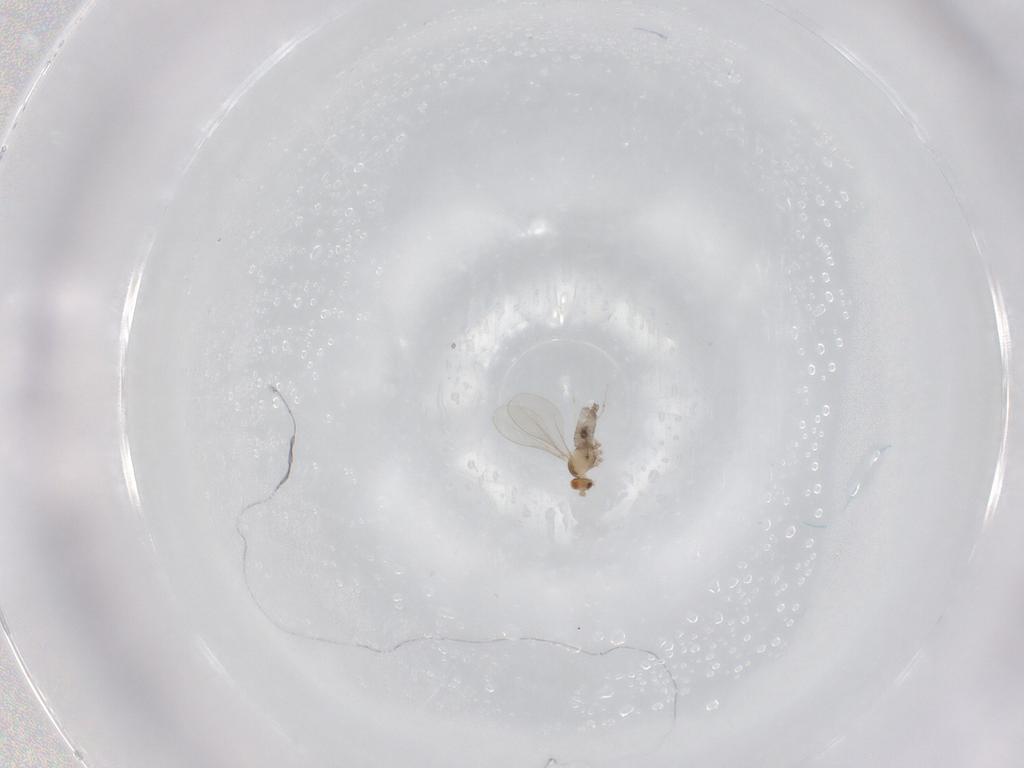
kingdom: Animalia
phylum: Arthropoda
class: Insecta
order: Diptera
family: Cecidomyiidae
